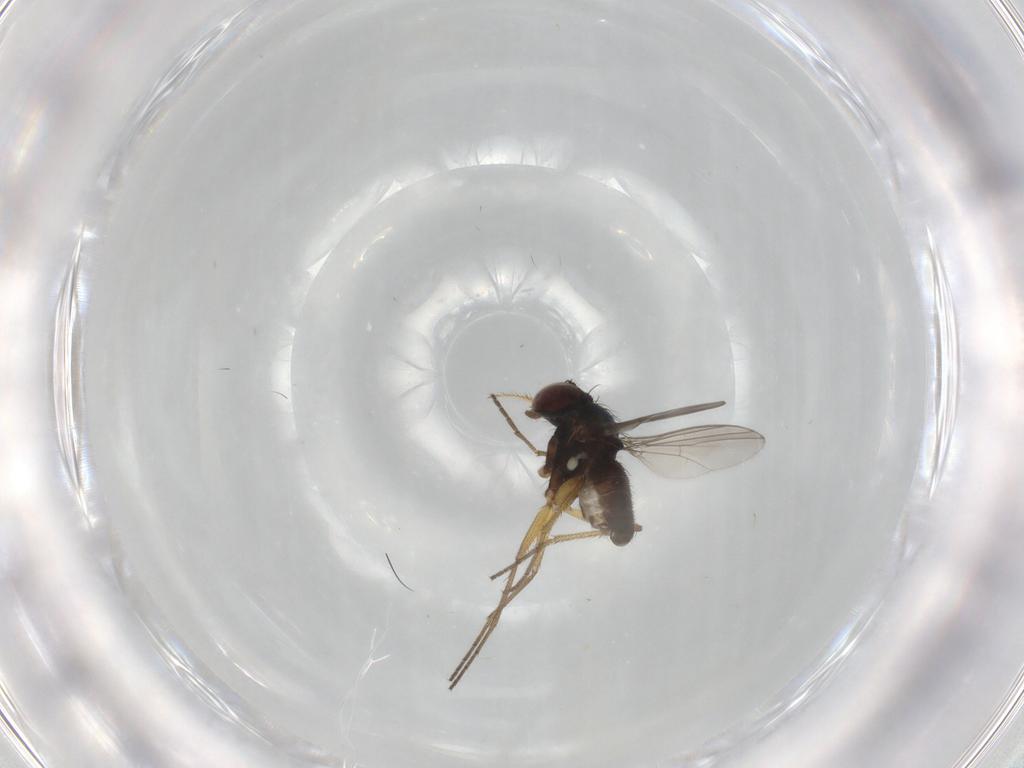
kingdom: Animalia
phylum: Arthropoda
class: Insecta
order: Diptera
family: Dolichopodidae
